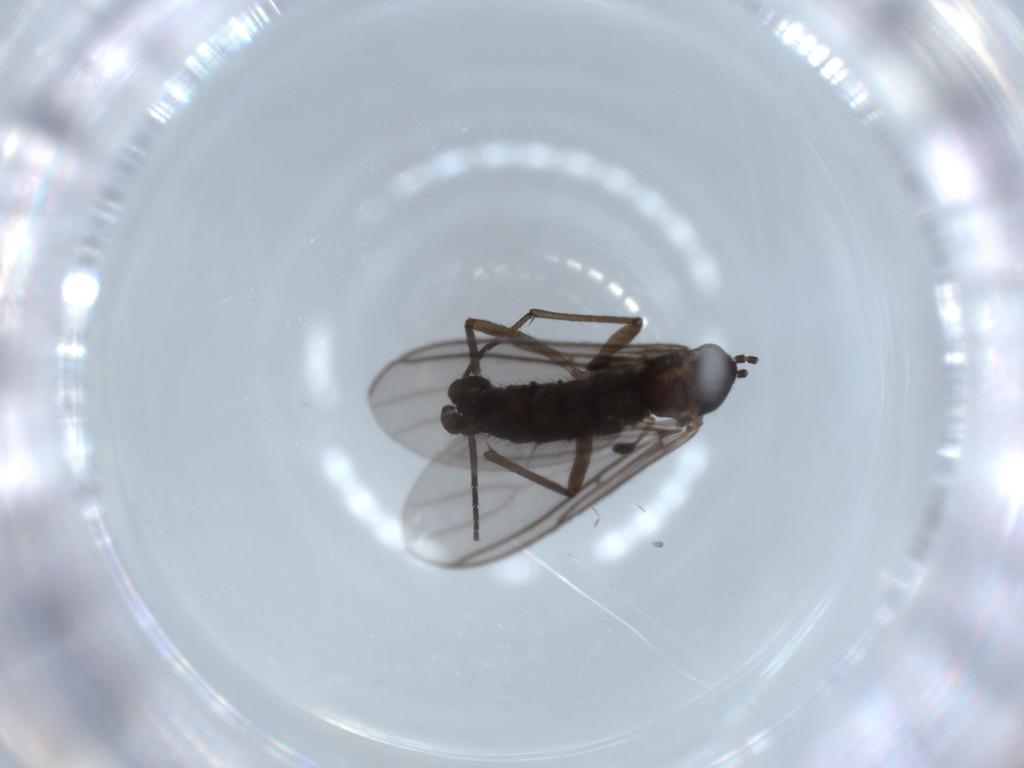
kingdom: Animalia
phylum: Arthropoda
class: Insecta
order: Diptera
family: Sciaridae
